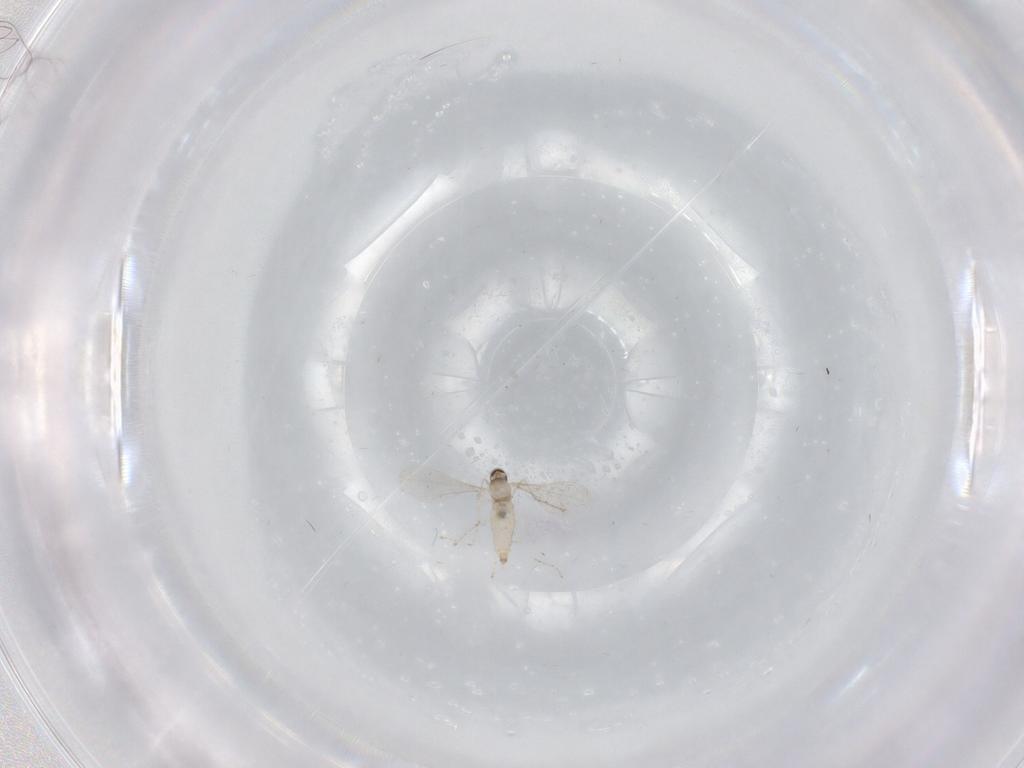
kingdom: Animalia
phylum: Arthropoda
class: Insecta
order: Diptera
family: Cecidomyiidae
